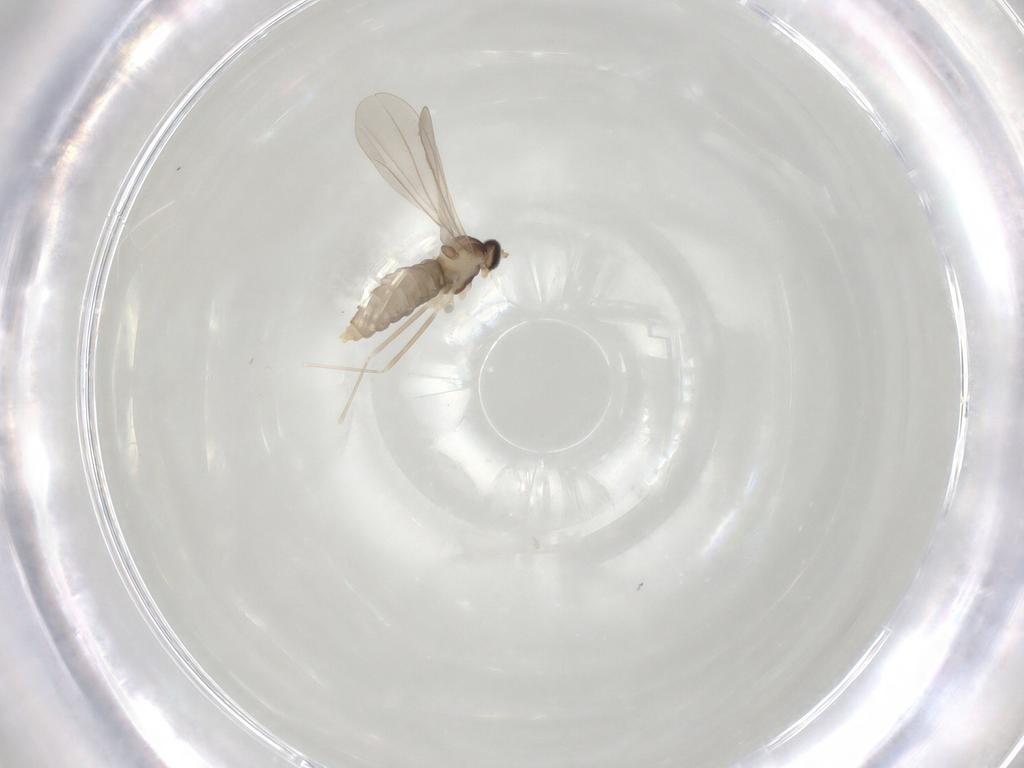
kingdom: Animalia
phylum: Arthropoda
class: Insecta
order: Diptera
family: Cecidomyiidae
